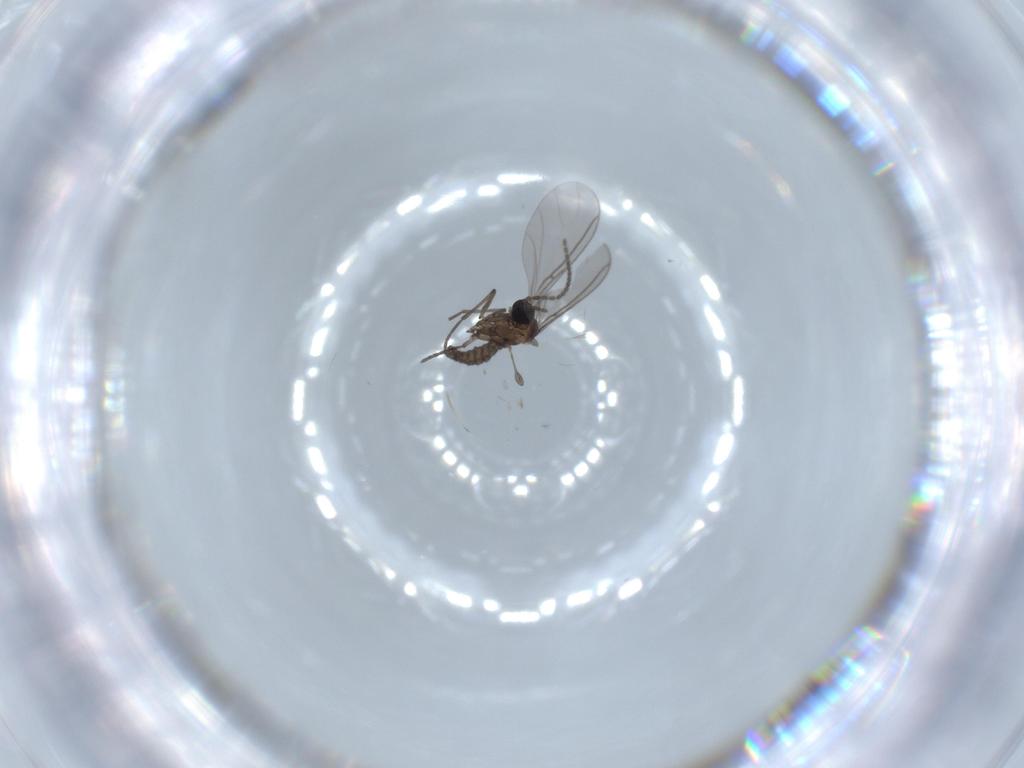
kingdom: Animalia
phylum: Arthropoda
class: Insecta
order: Diptera
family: Sciaridae
